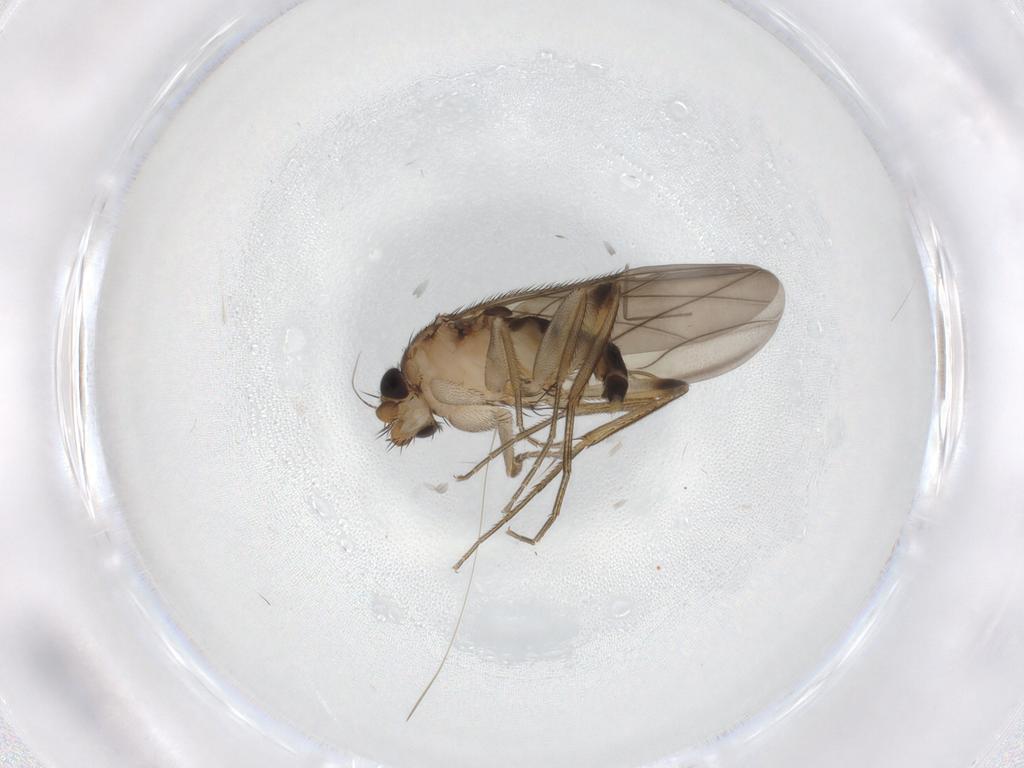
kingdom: Animalia
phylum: Arthropoda
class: Insecta
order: Diptera
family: Phoridae
